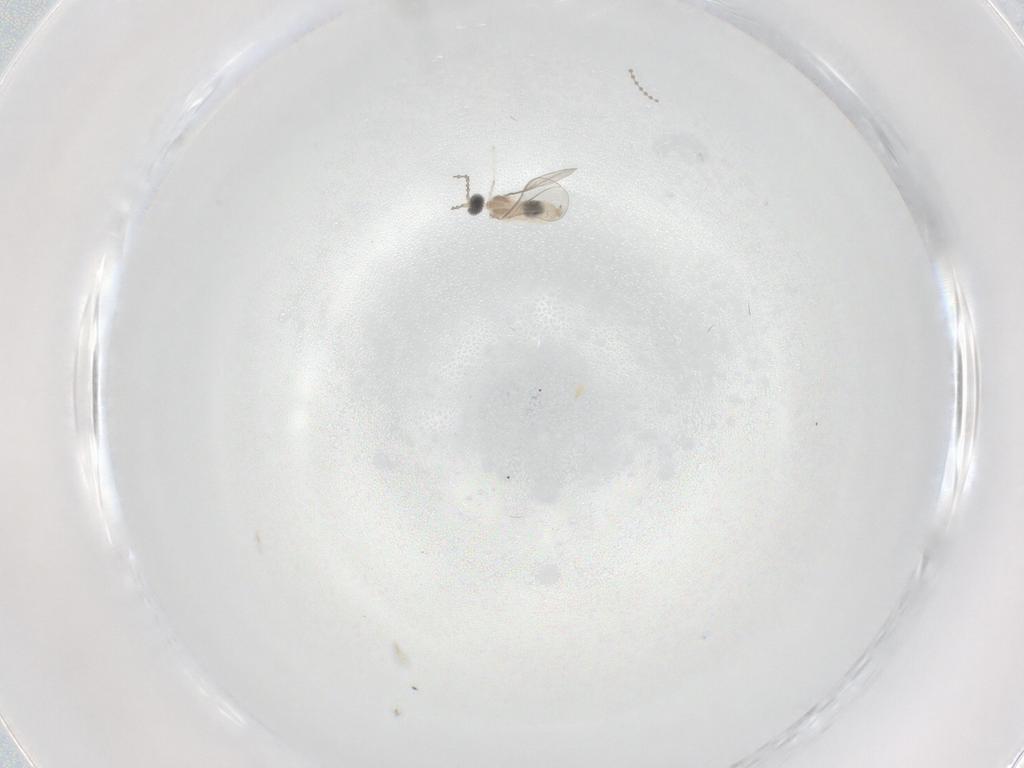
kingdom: Animalia
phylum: Arthropoda
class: Insecta
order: Diptera
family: Cecidomyiidae
